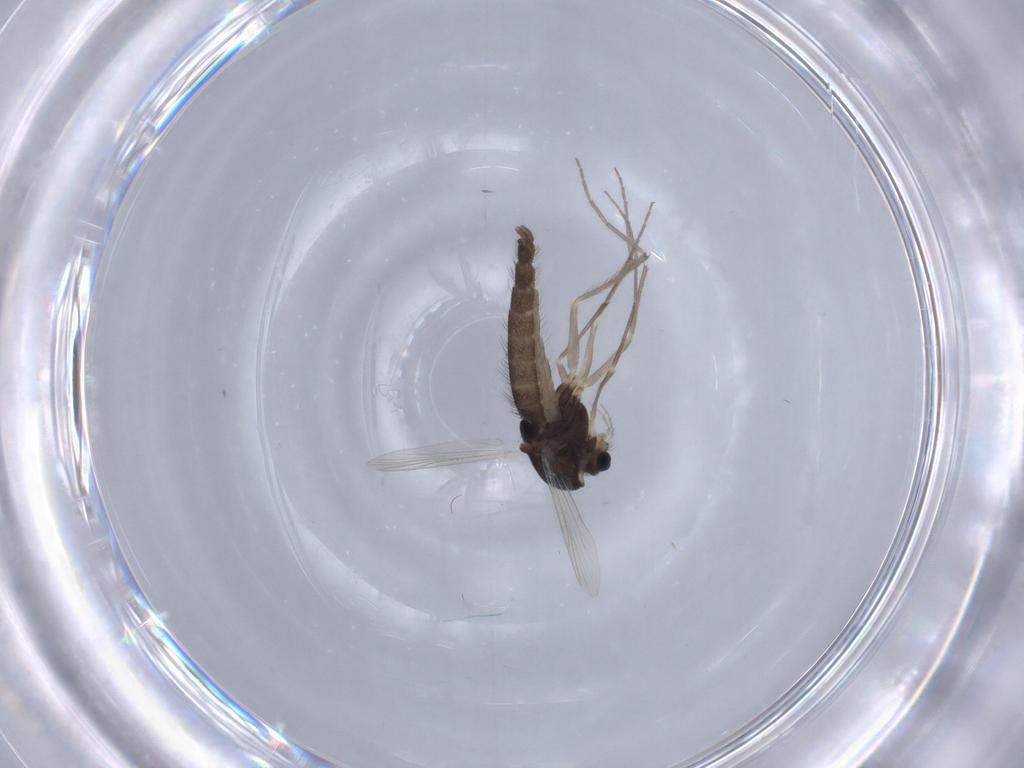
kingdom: Animalia
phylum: Arthropoda
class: Insecta
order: Diptera
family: Chironomidae
